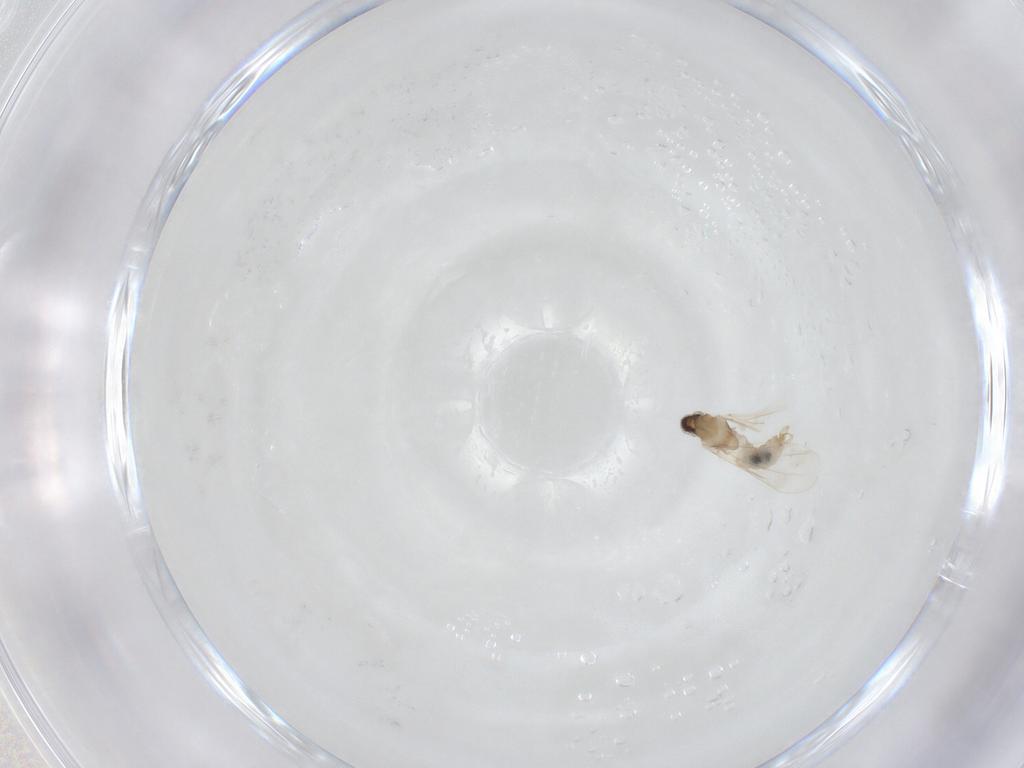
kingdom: Animalia
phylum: Arthropoda
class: Insecta
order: Diptera
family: Cecidomyiidae
